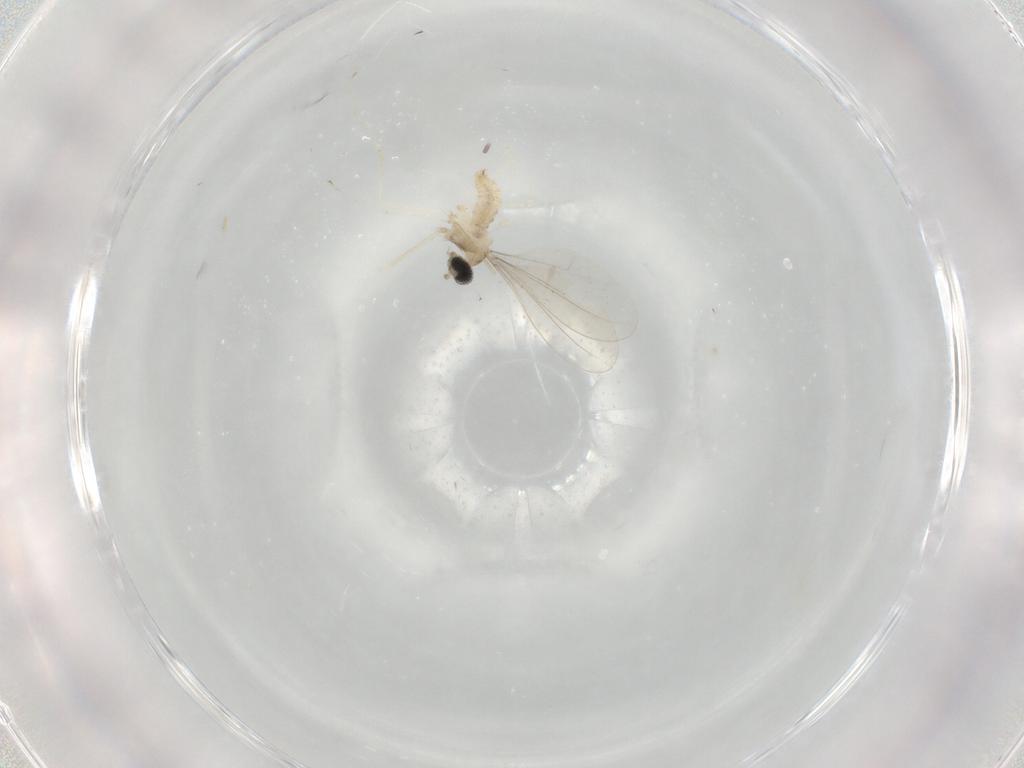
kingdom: Animalia
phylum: Arthropoda
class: Insecta
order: Diptera
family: Cecidomyiidae
